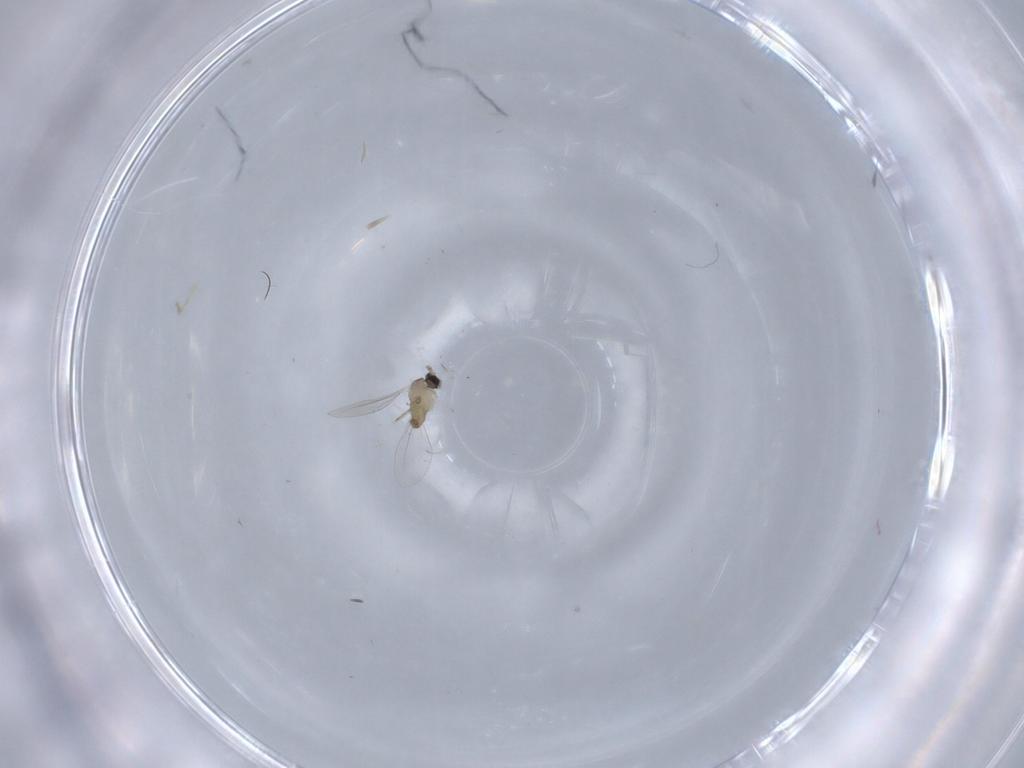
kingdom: Animalia
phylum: Arthropoda
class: Insecta
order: Diptera
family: Cecidomyiidae
